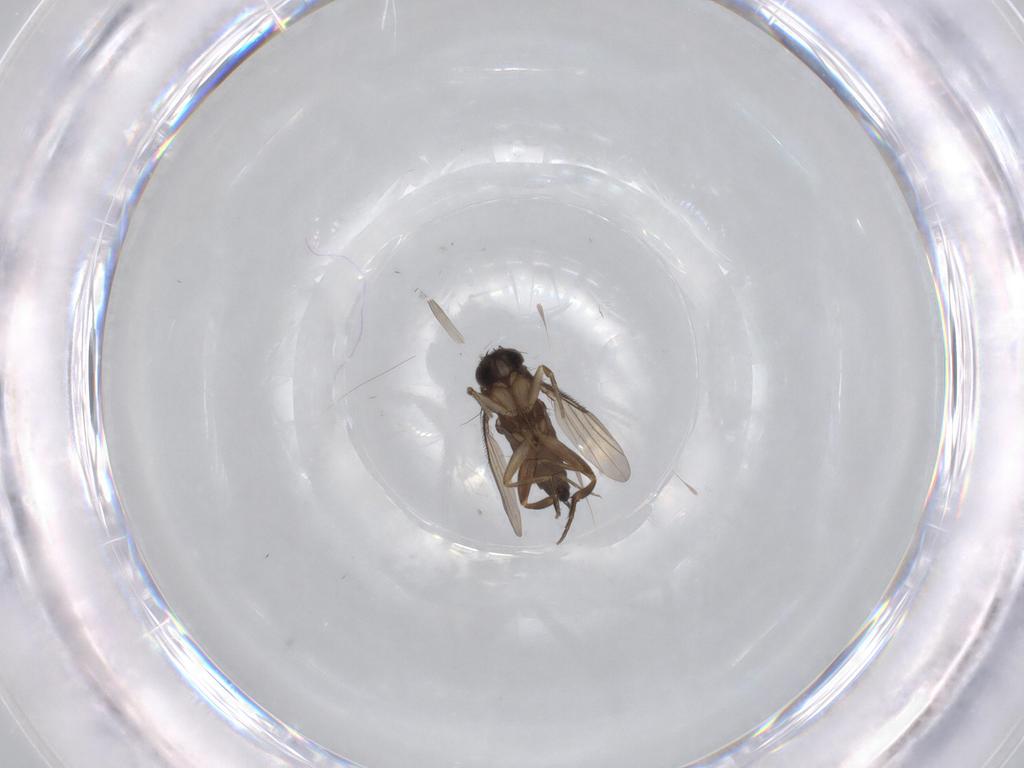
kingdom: Animalia
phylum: Arthropoda
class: Insecta
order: Diptera
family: Phoridae
